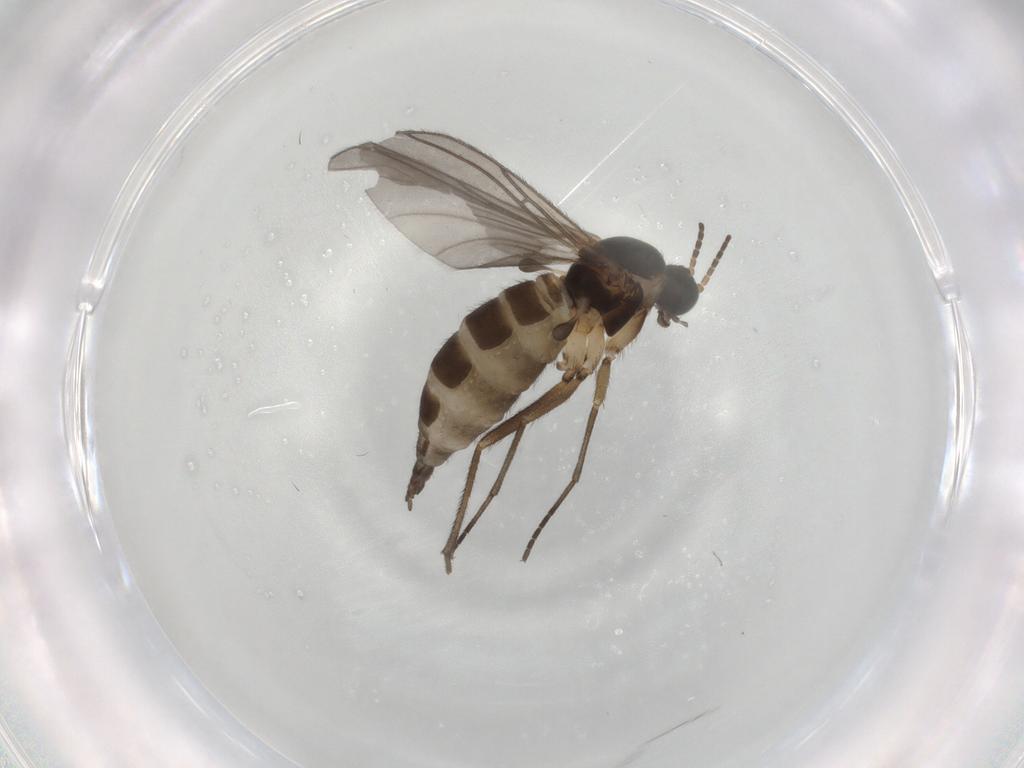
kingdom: Animalia
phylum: Arthropoda
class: Insecta
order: Diptera
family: Sciaridae
